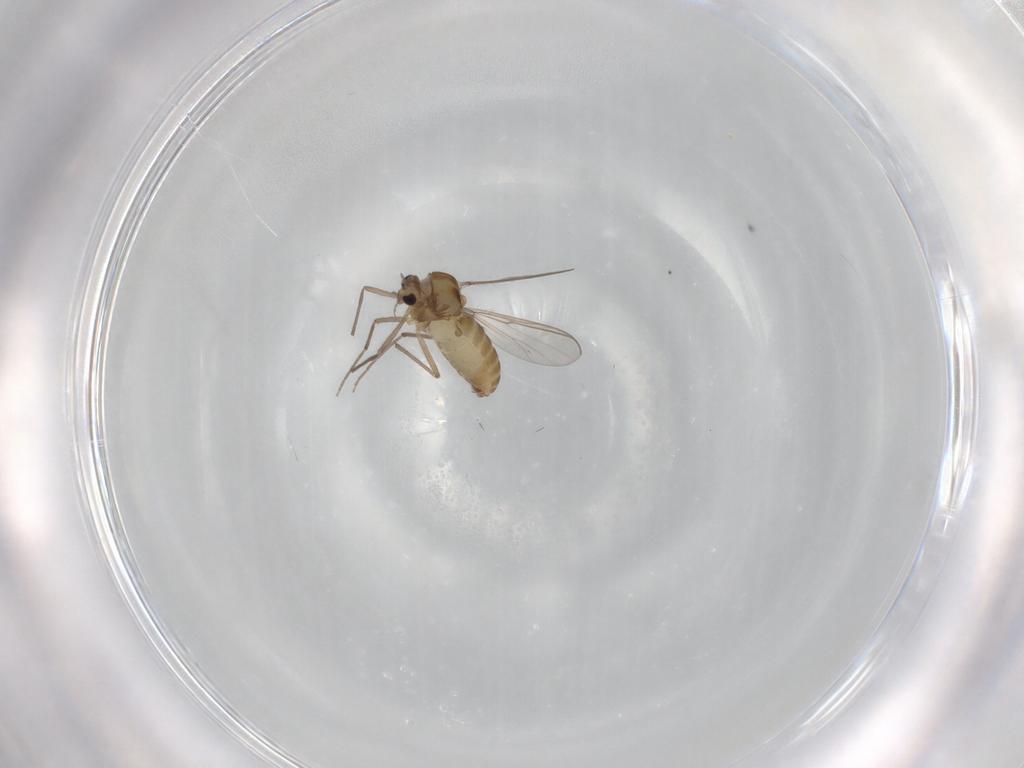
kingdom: Animalia
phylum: Arthropoda
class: Insecta
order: Diptera
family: Chironomidae
